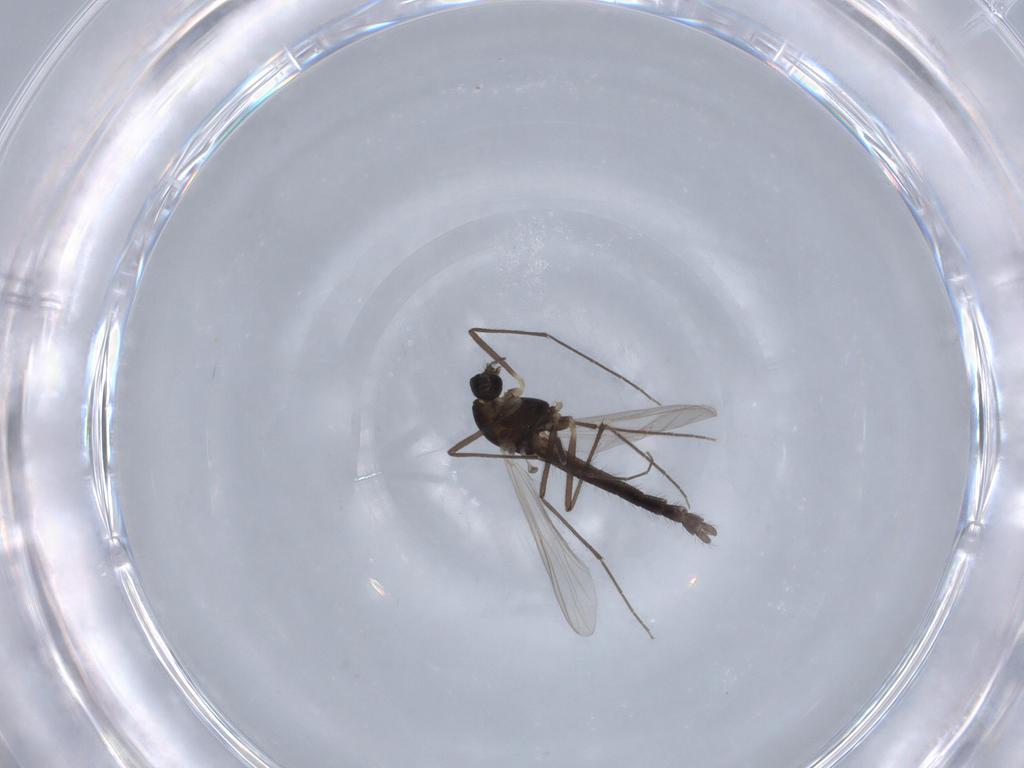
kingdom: Animalia
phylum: Arthropoda
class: Insecta
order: Diptera
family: Chironomidae
